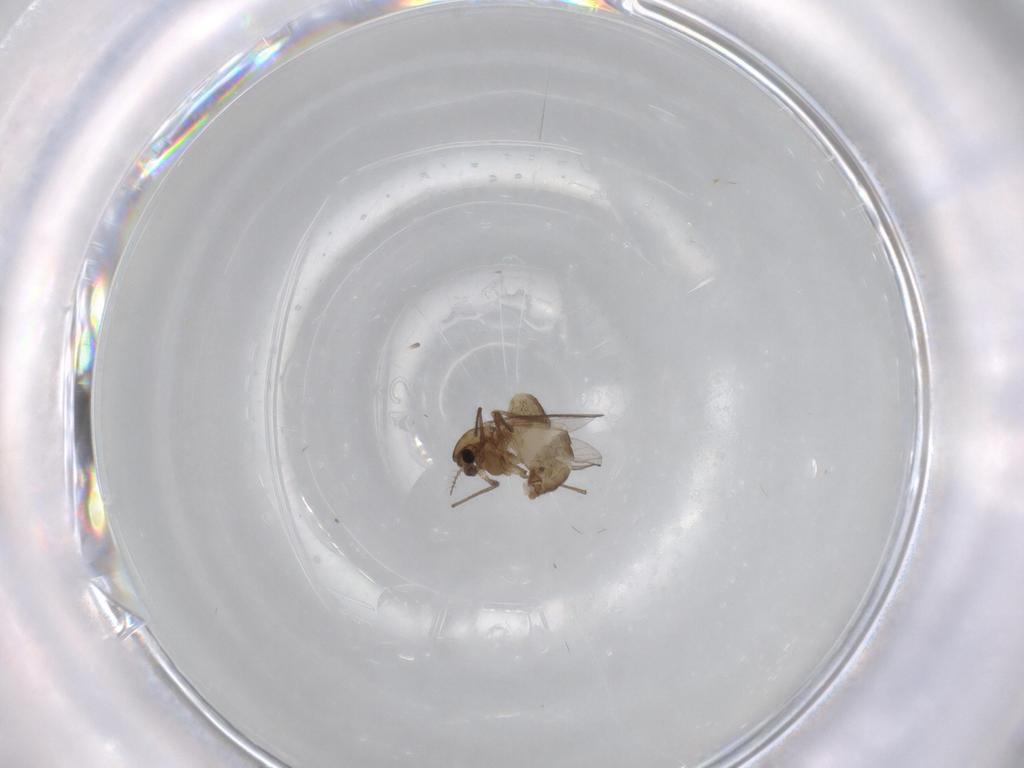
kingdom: Animalia
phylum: Arthropoda
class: Insecta
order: Diptera
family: Chironomidae
